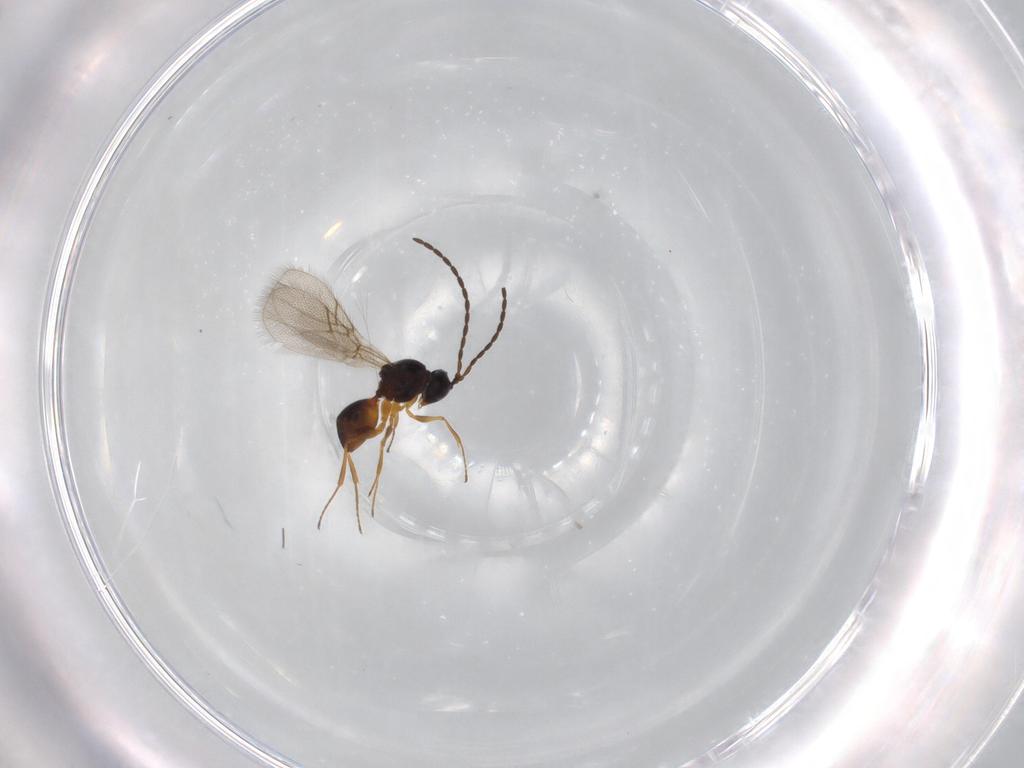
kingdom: Animalia
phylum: Arthropoda
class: Insecta
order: Hymenoptera
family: Figitidae
